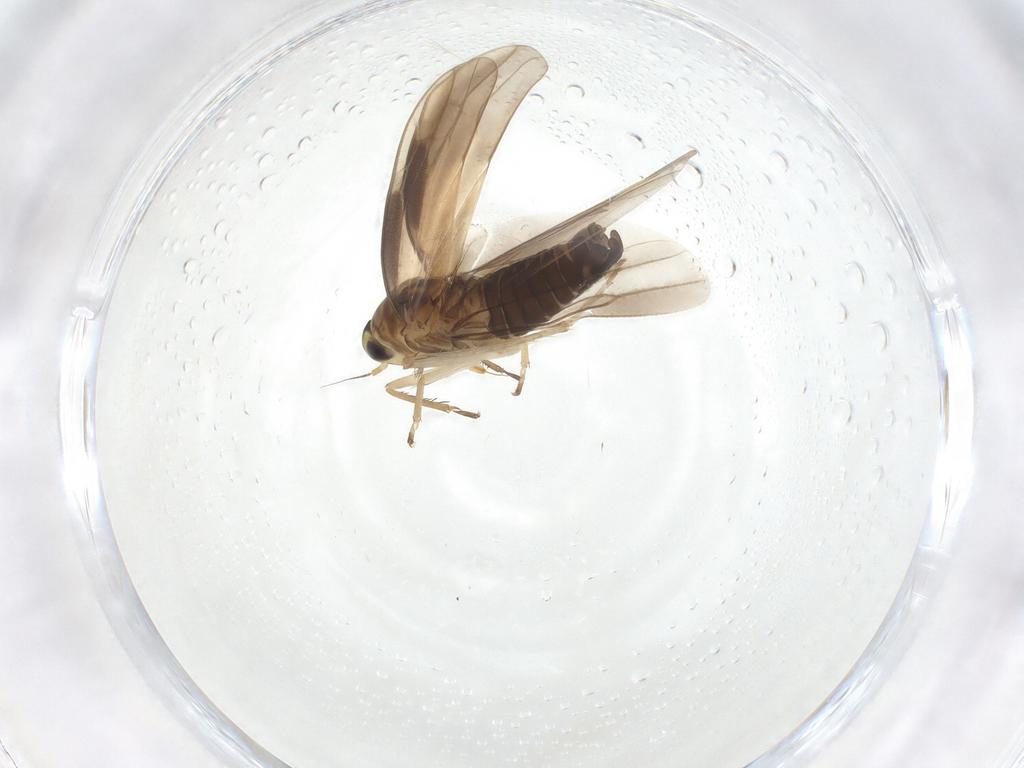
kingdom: Animalia
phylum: Arthropoda
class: Insecta
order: Hemiptera
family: Cicadellidae
